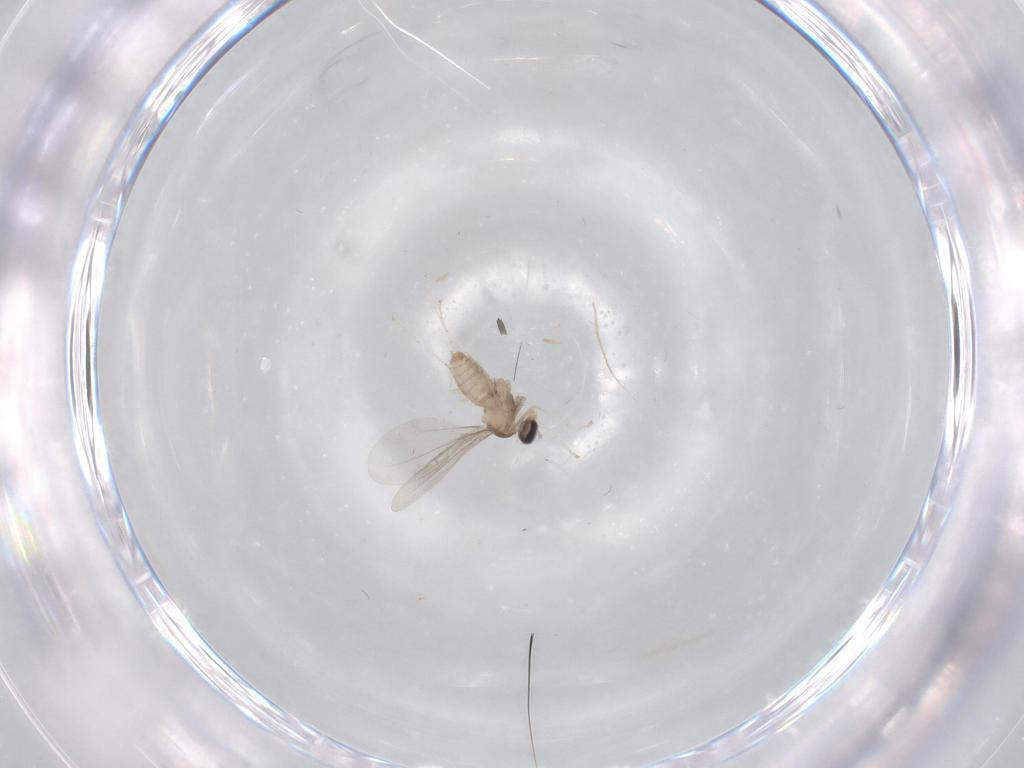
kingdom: Animalia
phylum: Arthropoda
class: Insecta
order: Diptera
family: Cecidomyiidae
